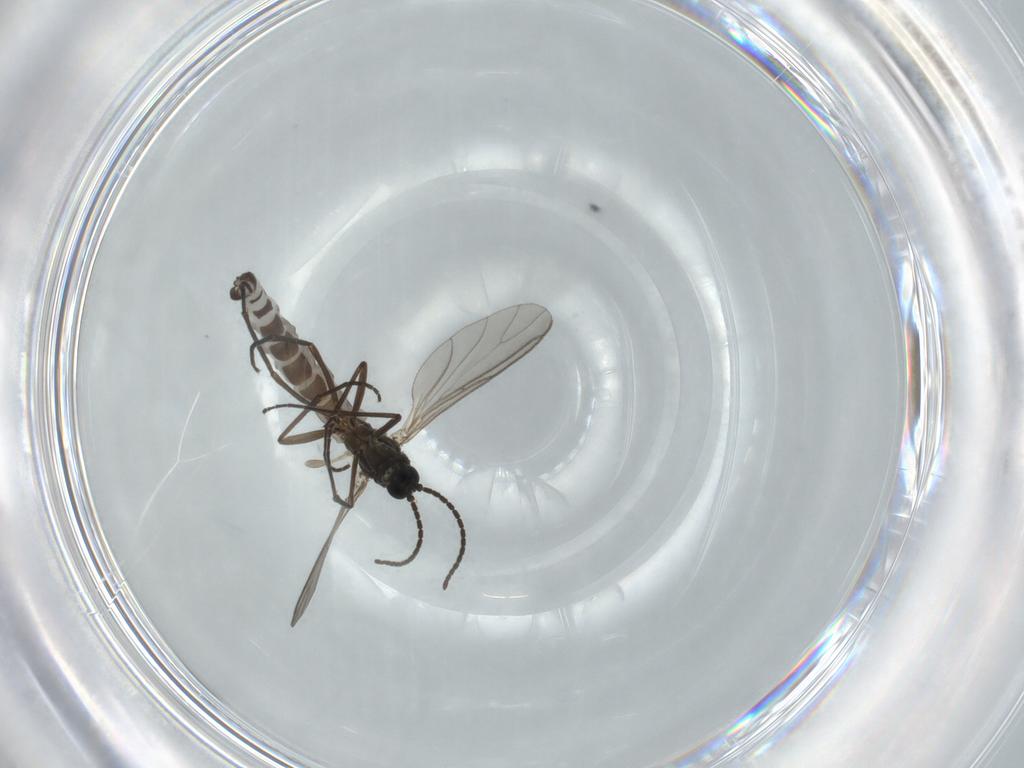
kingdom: Animalia
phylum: Arthropoda
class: Insecta
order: Diptera
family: Sciaridae
